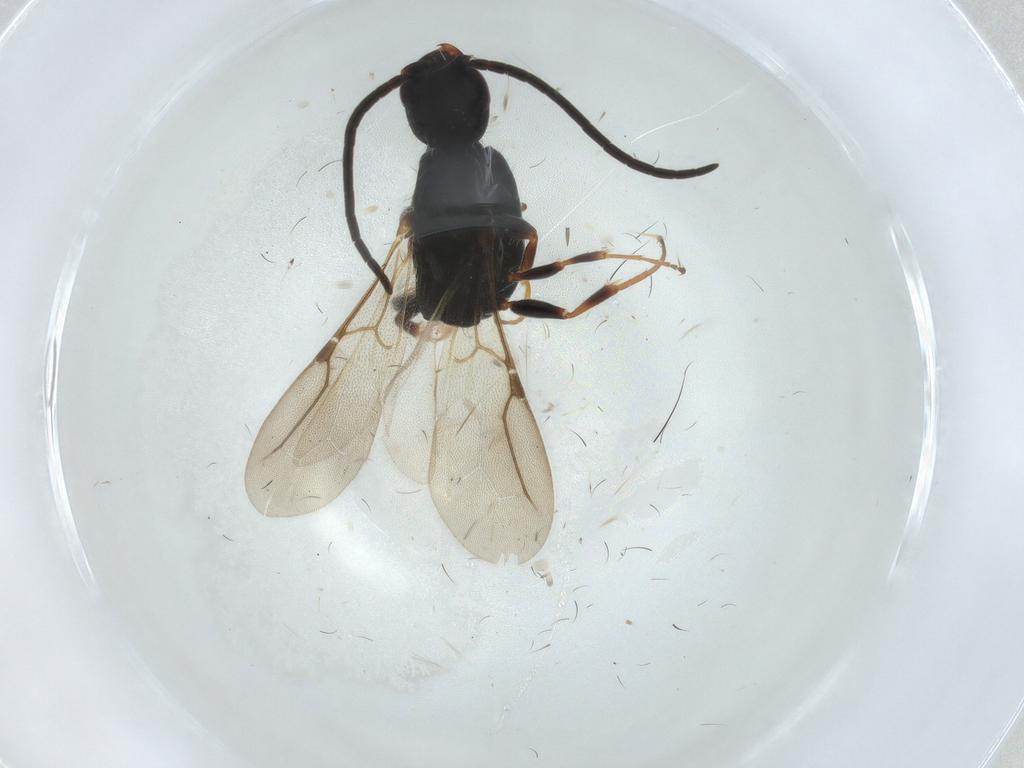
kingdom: Animalia
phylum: Arthropoda
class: Insecta
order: Hymenoptera
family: Bethylidae
